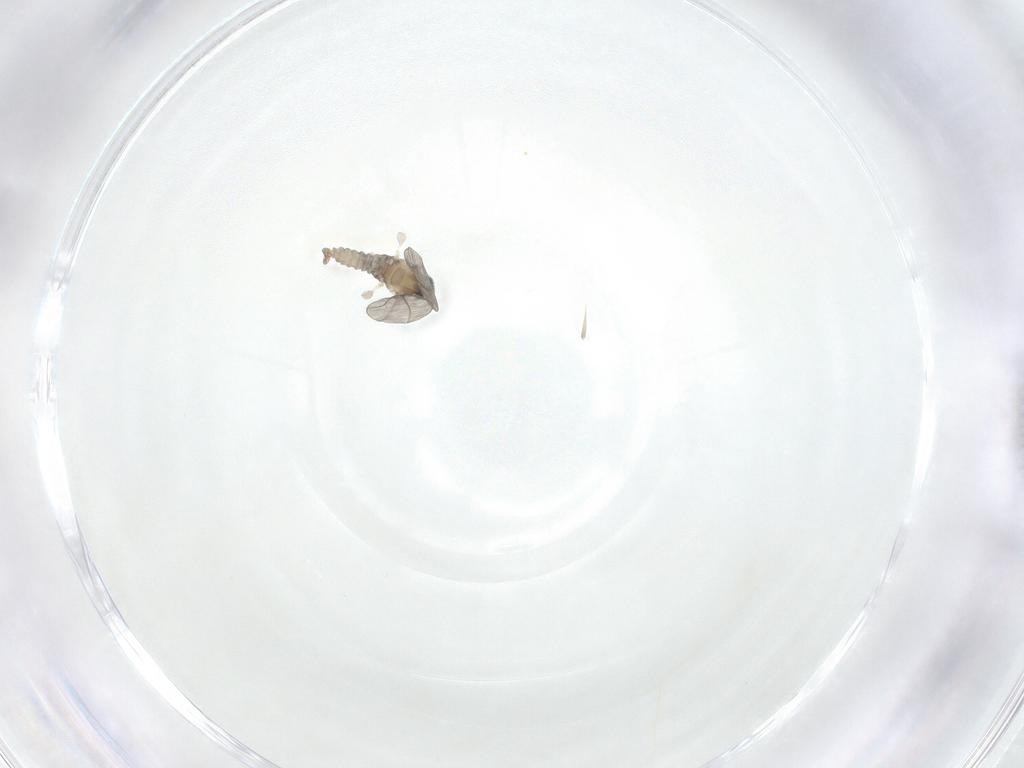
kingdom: Animalia
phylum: Arthropoda
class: Insecta
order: Diptera
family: Cecidomyiidae
